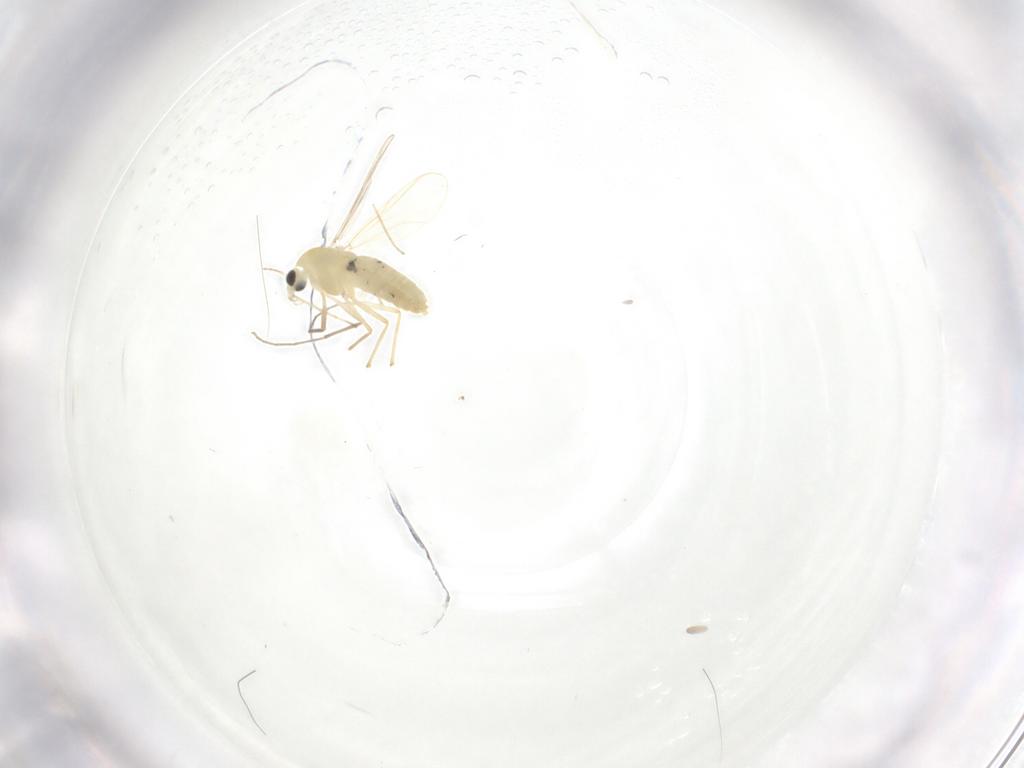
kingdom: Animalia
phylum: Arthropoda
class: Insecta
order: Diptera
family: Chironomidae
